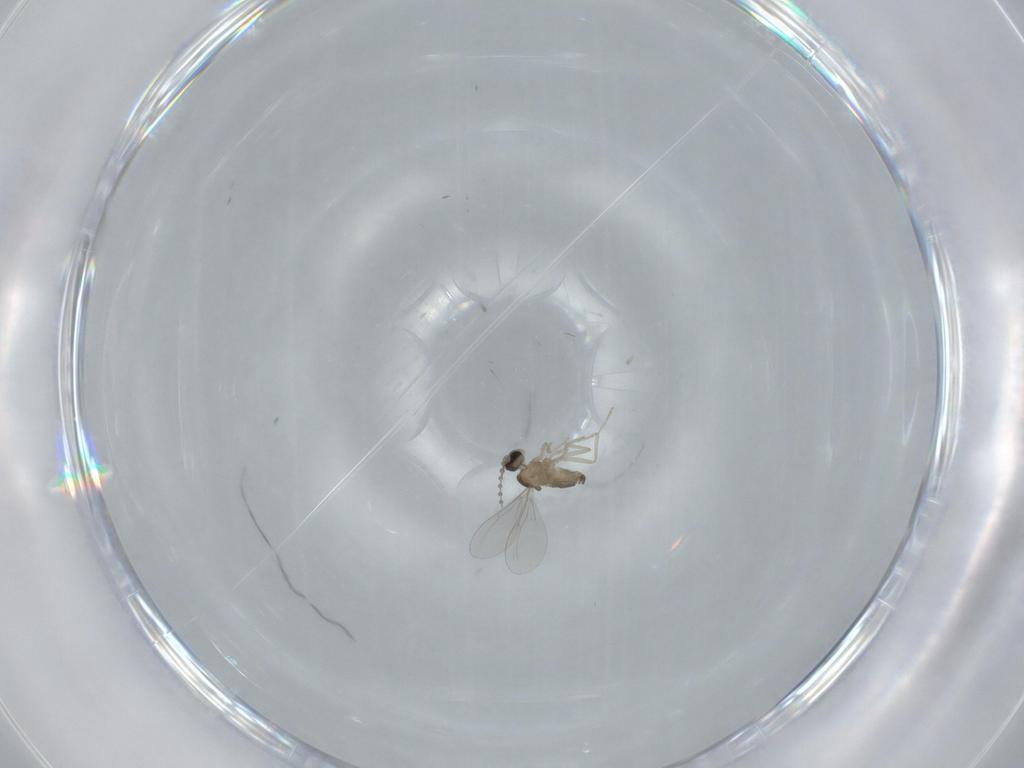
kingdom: Animalia
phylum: Arthropoda
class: Insecta
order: Diptera
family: Cecidomyiidae
